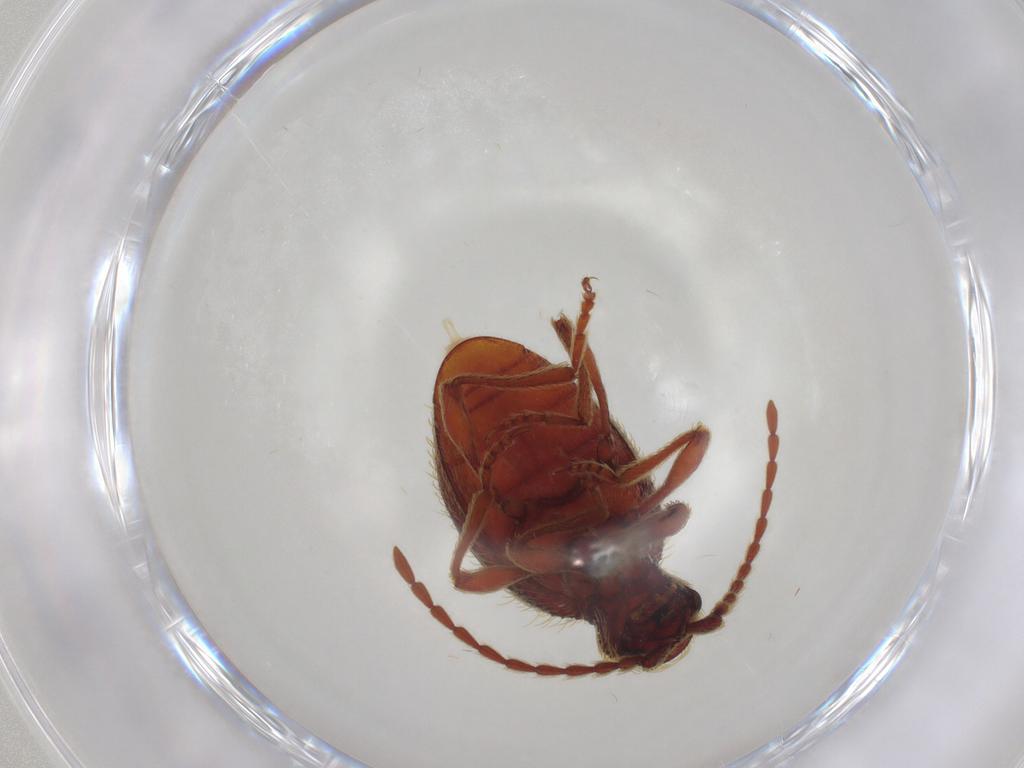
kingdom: Animalia
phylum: Arthropoda
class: Insecta
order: Coleoptera
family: Ptinidae
